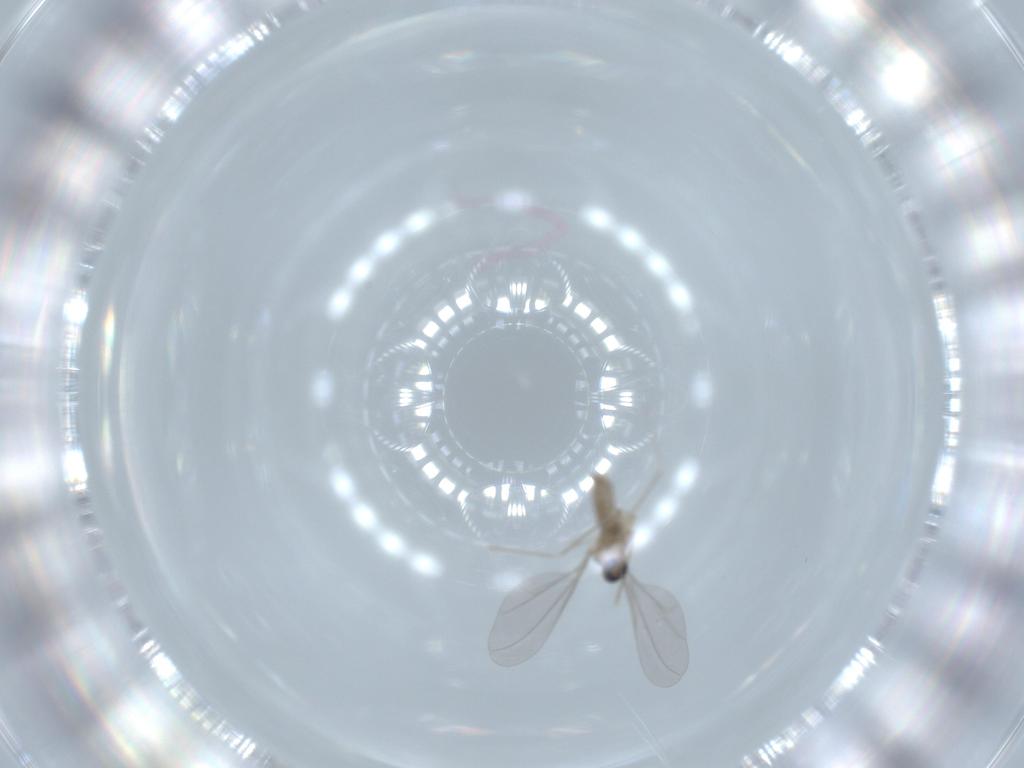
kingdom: Animalia
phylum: Arthropoda
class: Insecta
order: Diptera
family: Cecidomyiidae
